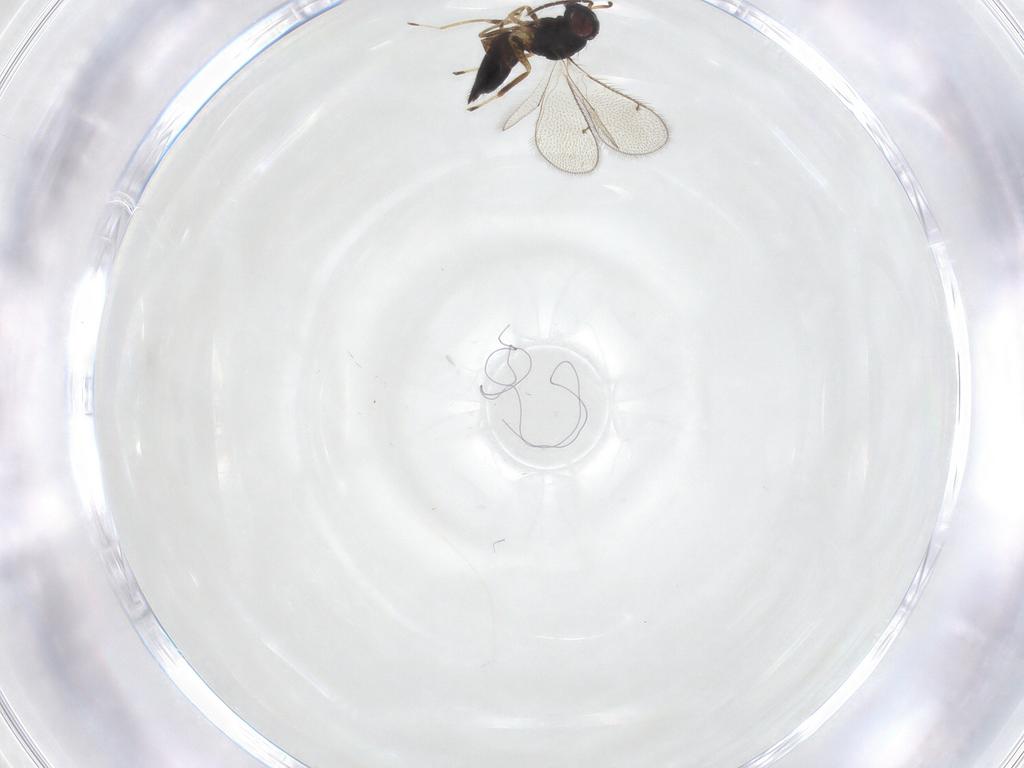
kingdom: Animalia
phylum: Arthropoda
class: Insecta
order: Hymenoptera
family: Eulophidae
